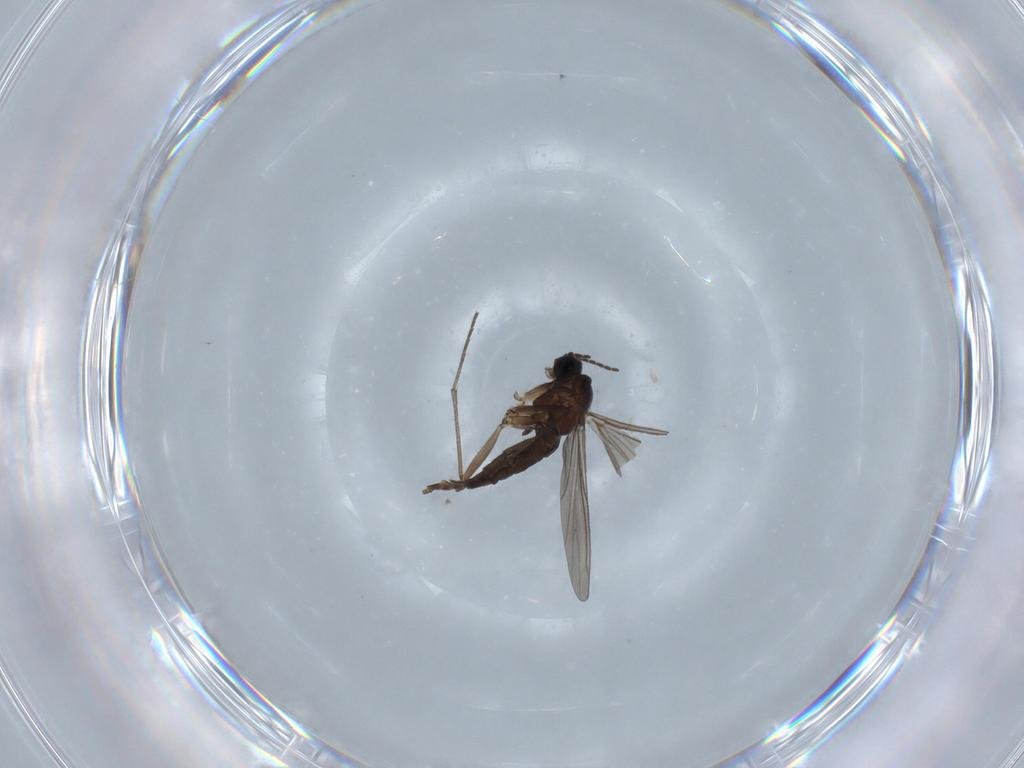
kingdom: Animalia
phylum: Arthropoda
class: Insecta
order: Diptera
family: Sciaridae
